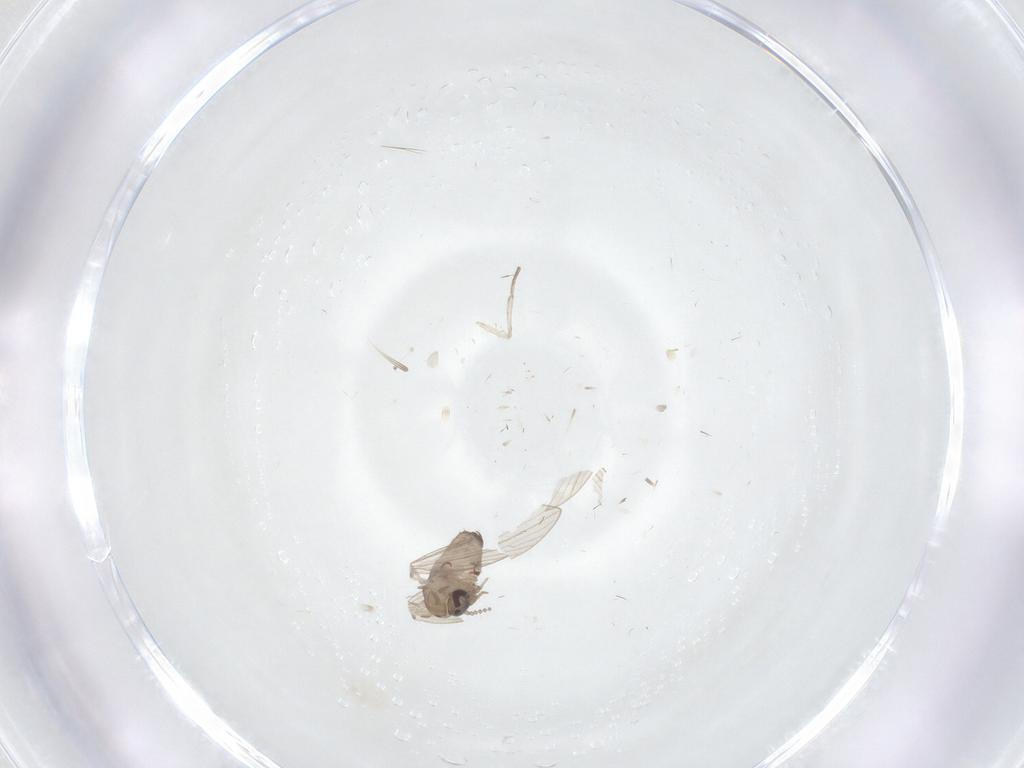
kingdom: Animalia
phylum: Arthropoda
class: Insecta
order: Diptera
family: Psychodidae
